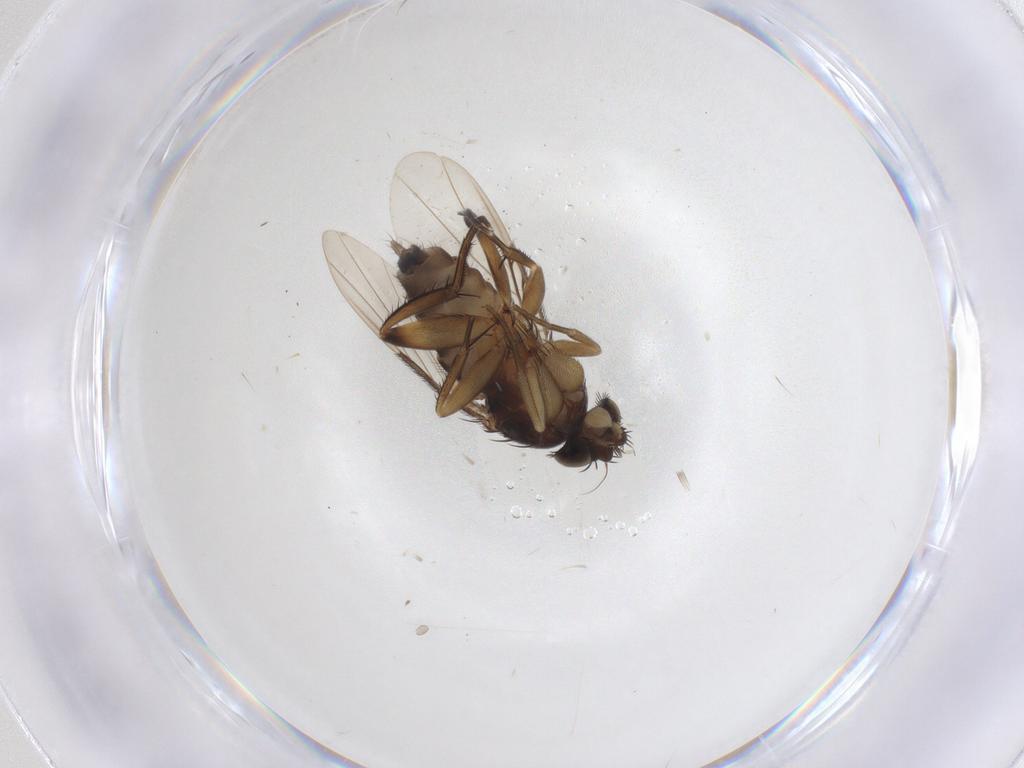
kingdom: Animalia
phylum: Arthropoda
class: Insecta
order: Diptera
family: Phoridae
